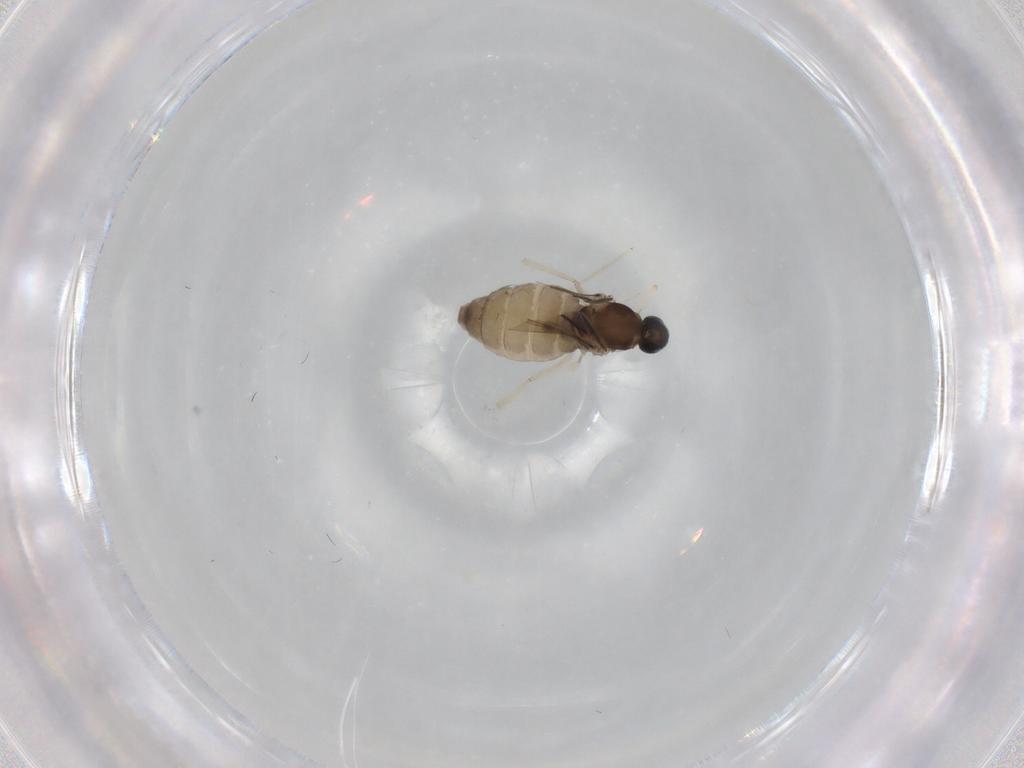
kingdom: Animalia
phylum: Arthropoda
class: Insecta
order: Diptera
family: Cecidomyiidae
